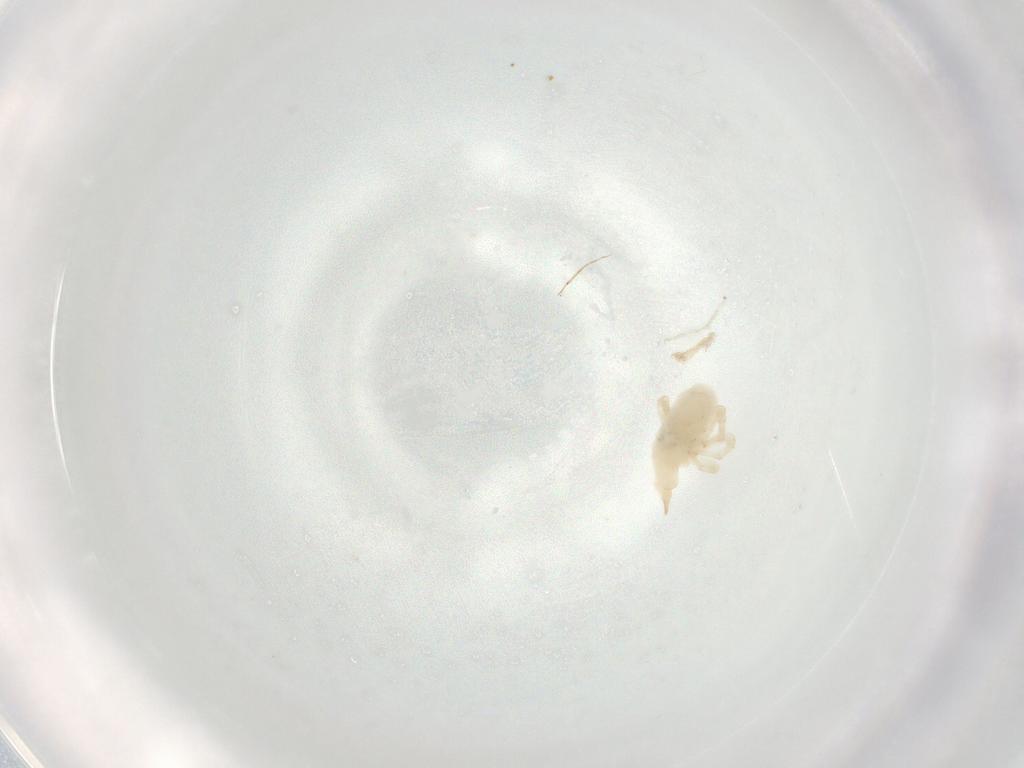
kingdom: Animalia
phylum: Arthropoda
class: Arachnida
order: Trombidiformes
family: Bdellidae
